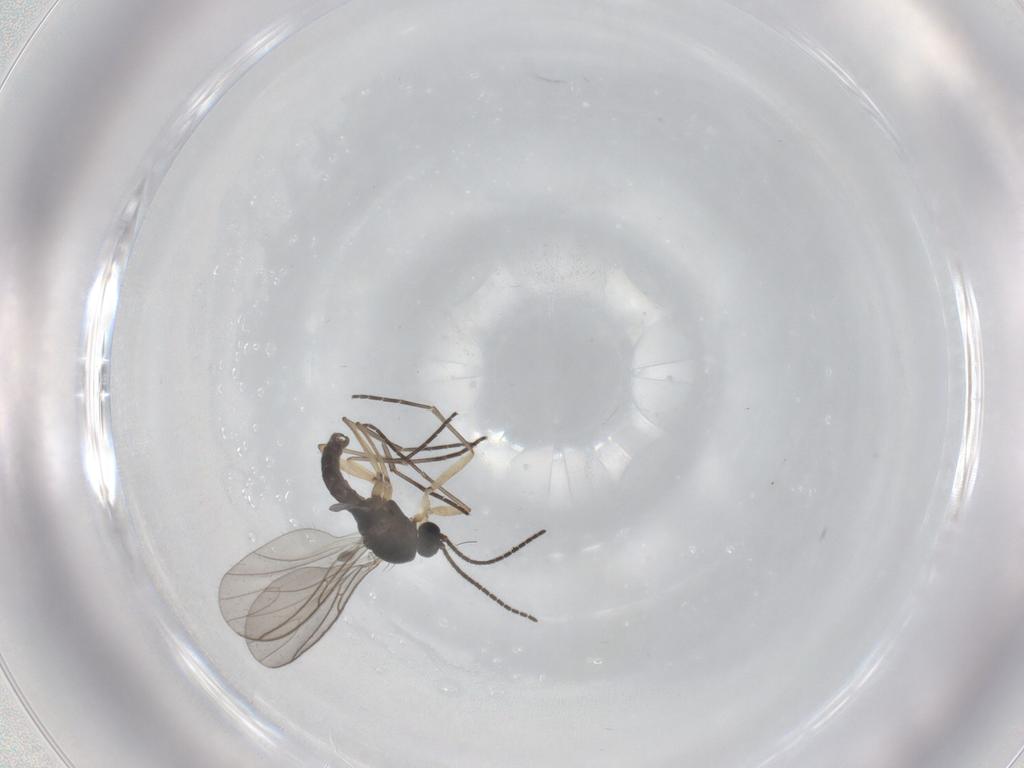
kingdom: Animalia
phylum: Arthropoda
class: Insecta
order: Diptera
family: Sciaridae
